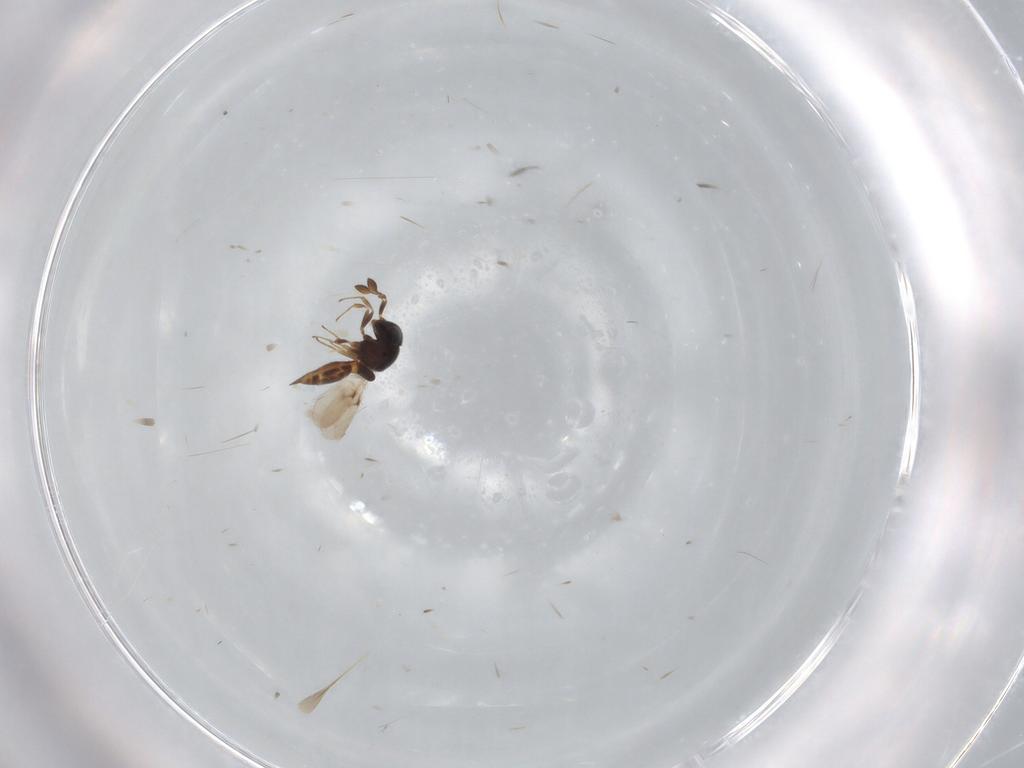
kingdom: Animalia
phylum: Arthropoda
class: Insecta
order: Hymenoptera
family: Scelionidae
